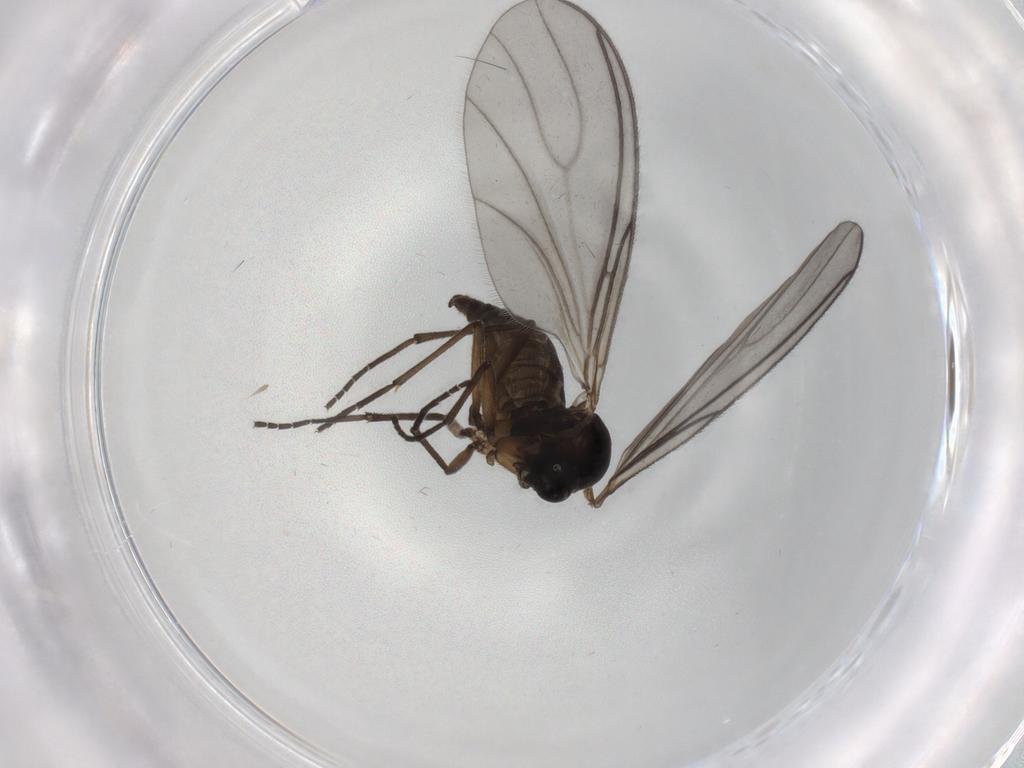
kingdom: Animalia
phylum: Arthropoda
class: Insecta
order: Diptera
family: Sciaridae
